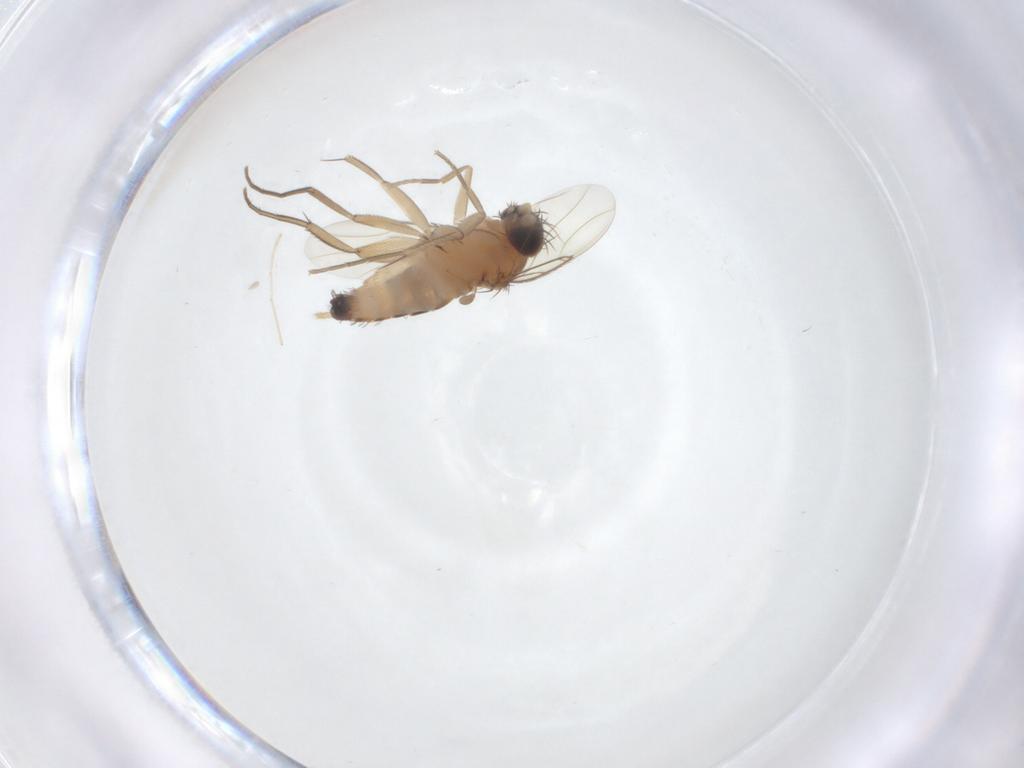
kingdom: Animalia
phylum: Arthropoda
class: Insecta
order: Diptera
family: Phoridae
